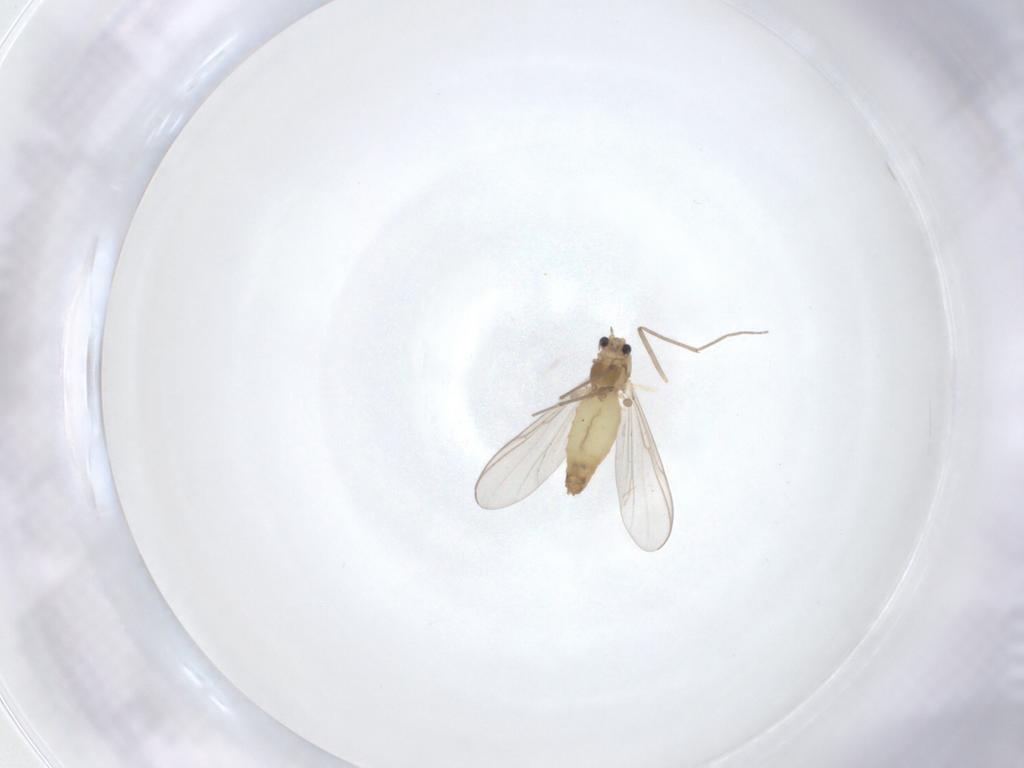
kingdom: Animalia
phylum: Arthropoda
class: Insecta
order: Diptera
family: Chironomidae
